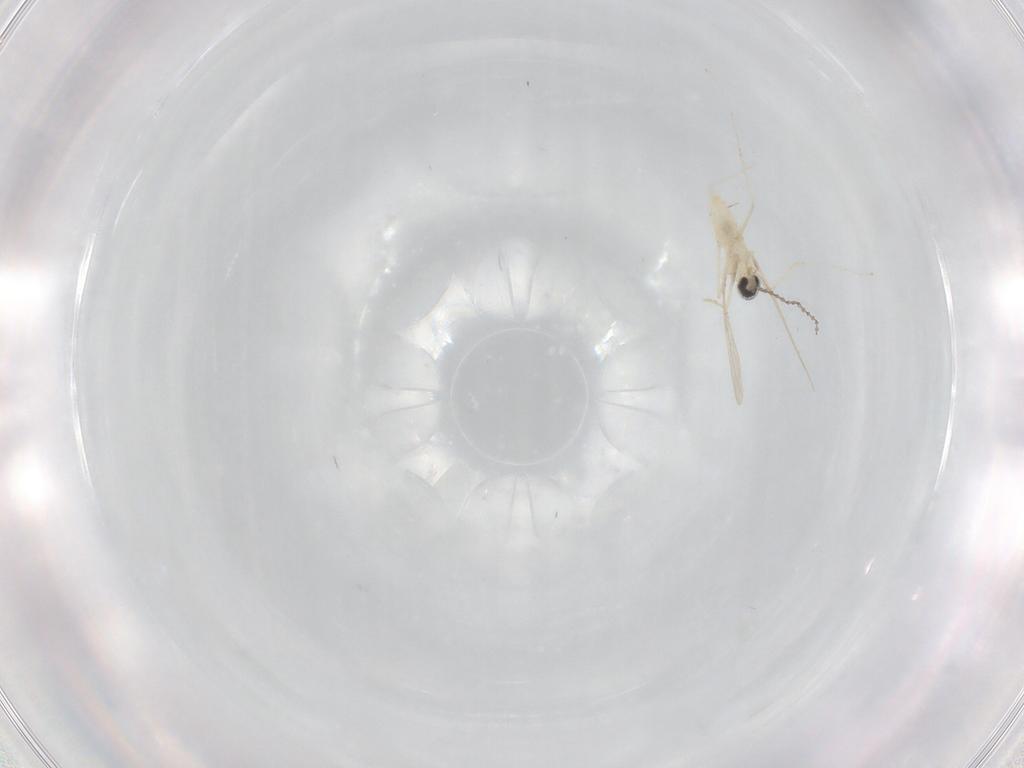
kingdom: Animalia
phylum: Arthropoda
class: Insecta
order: Diptera
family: Cecidomyiidae
